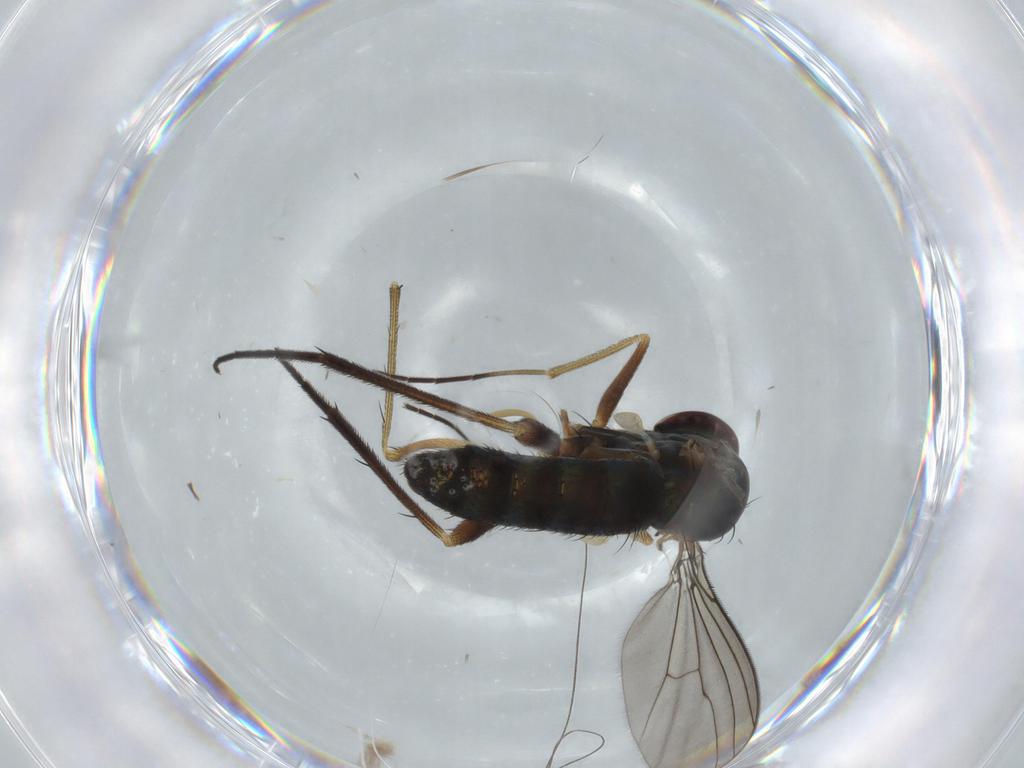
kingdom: Animalia
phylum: Arthropoda
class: Insecta
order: Diptera
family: Dolichopodidae
